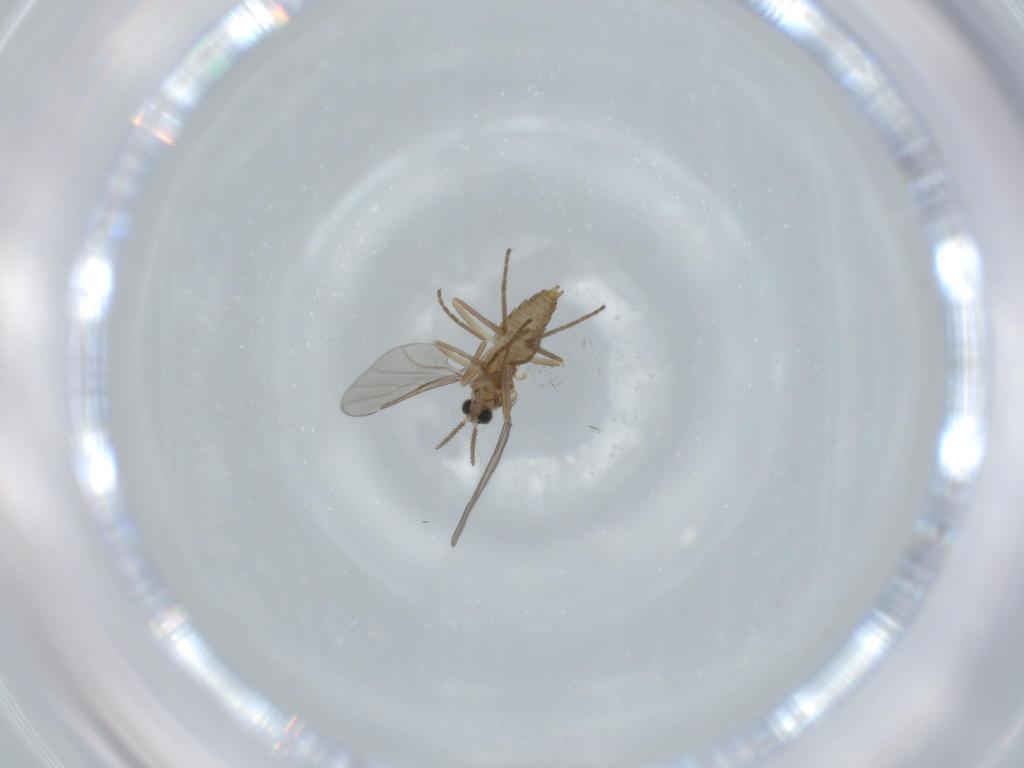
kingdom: Animalia
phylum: Arthropoda
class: Insecta
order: Diptera
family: Cecidomyiidae
